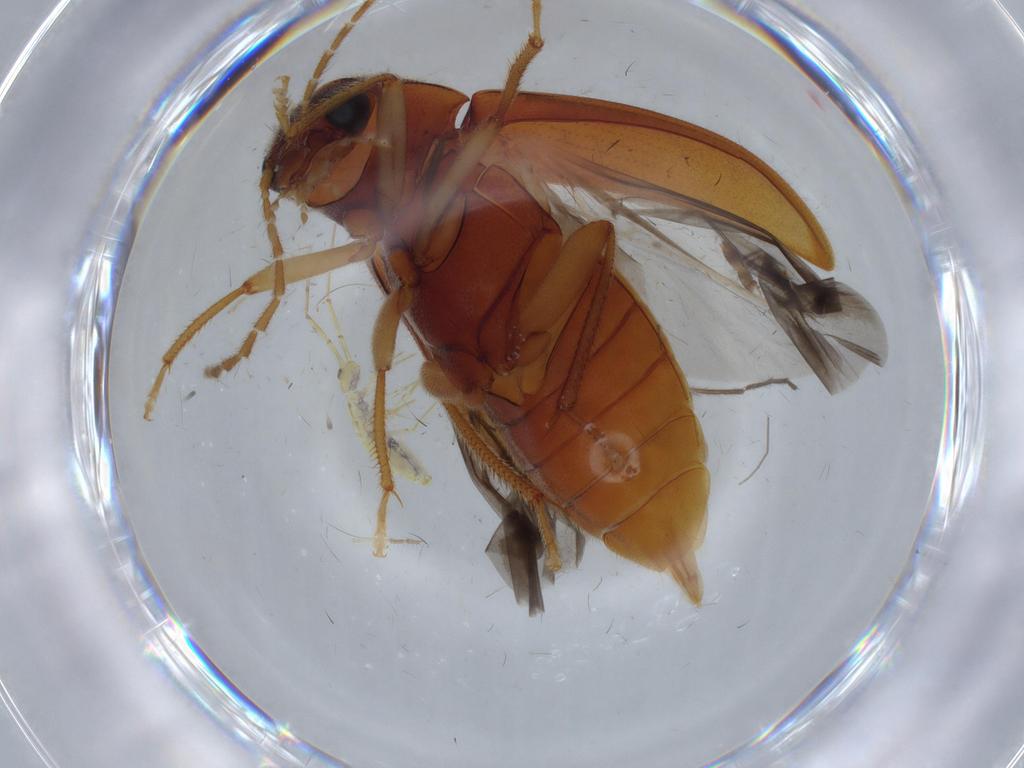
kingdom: Animalia
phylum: Arthropoda
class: Insecta
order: Coleoptera
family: Ptilodactylidae
